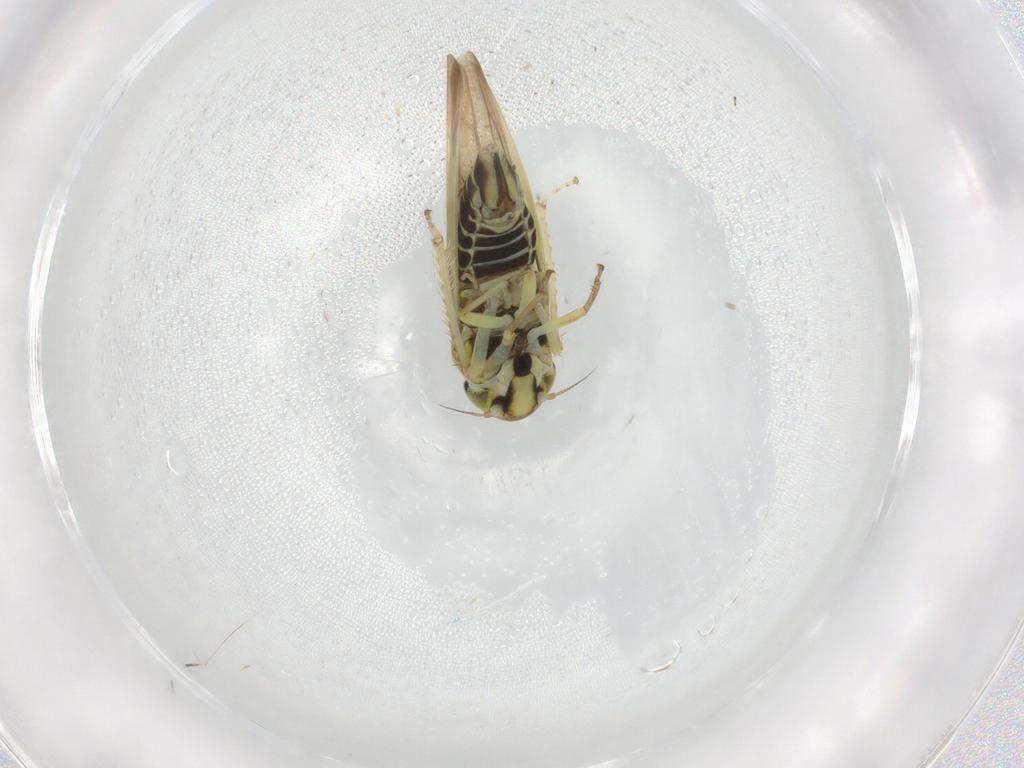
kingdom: Animalia
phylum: Arthropoda
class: Insecta
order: Hemiptera
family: Cicadellidae
